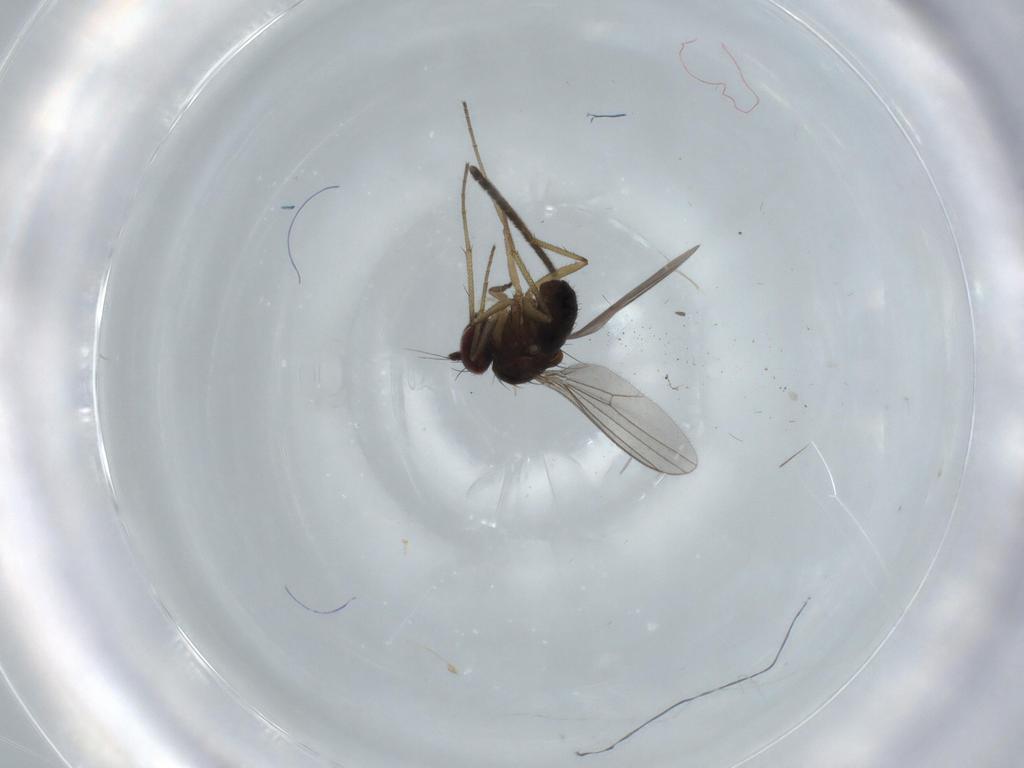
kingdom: Animalia
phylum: Arthropoda
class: Insecta
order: Diptera
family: Dolichopodidae
